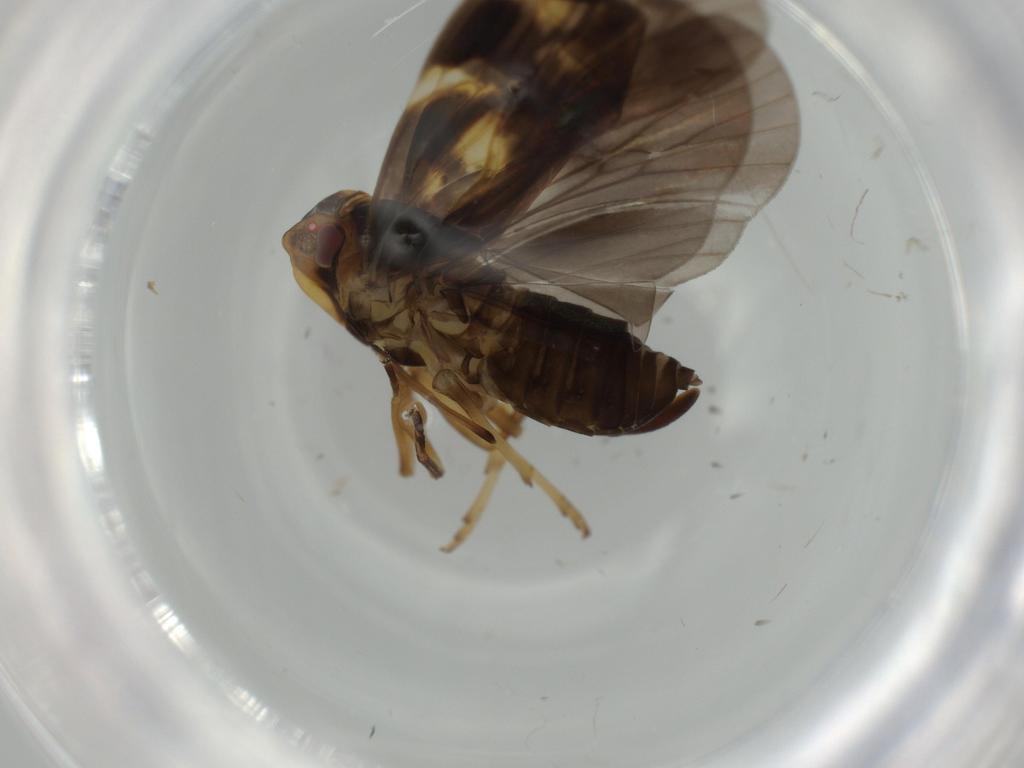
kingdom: Animalia
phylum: Arthropoda
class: Insecta
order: Hemiptera
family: Cixiidae
